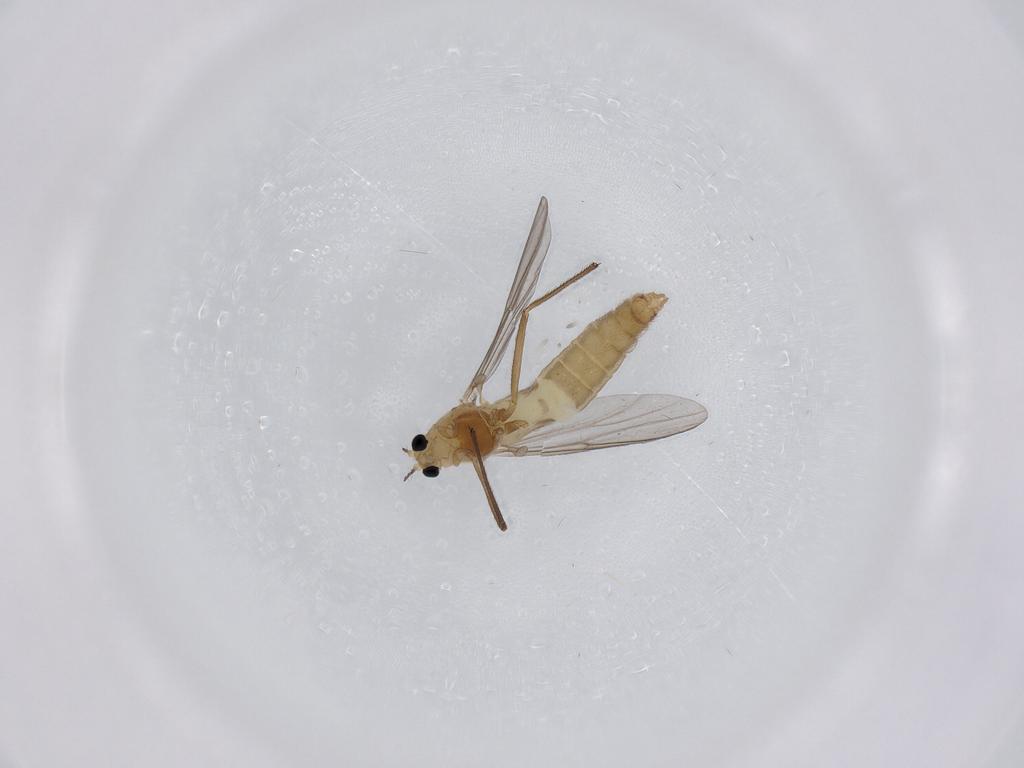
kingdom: Animalia
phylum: Arthropoda
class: Insecta
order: Diptera
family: Chironomidae
